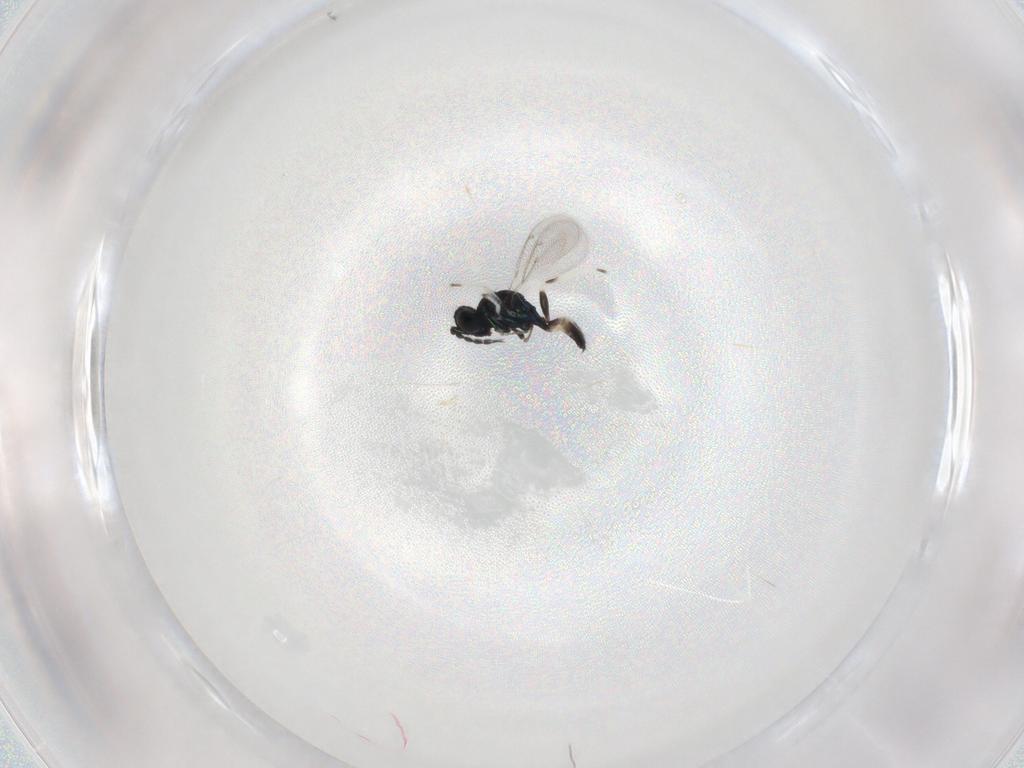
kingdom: Animalia
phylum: Arthropoda
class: Insecta
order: Hymenoptera
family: Eulophidae
